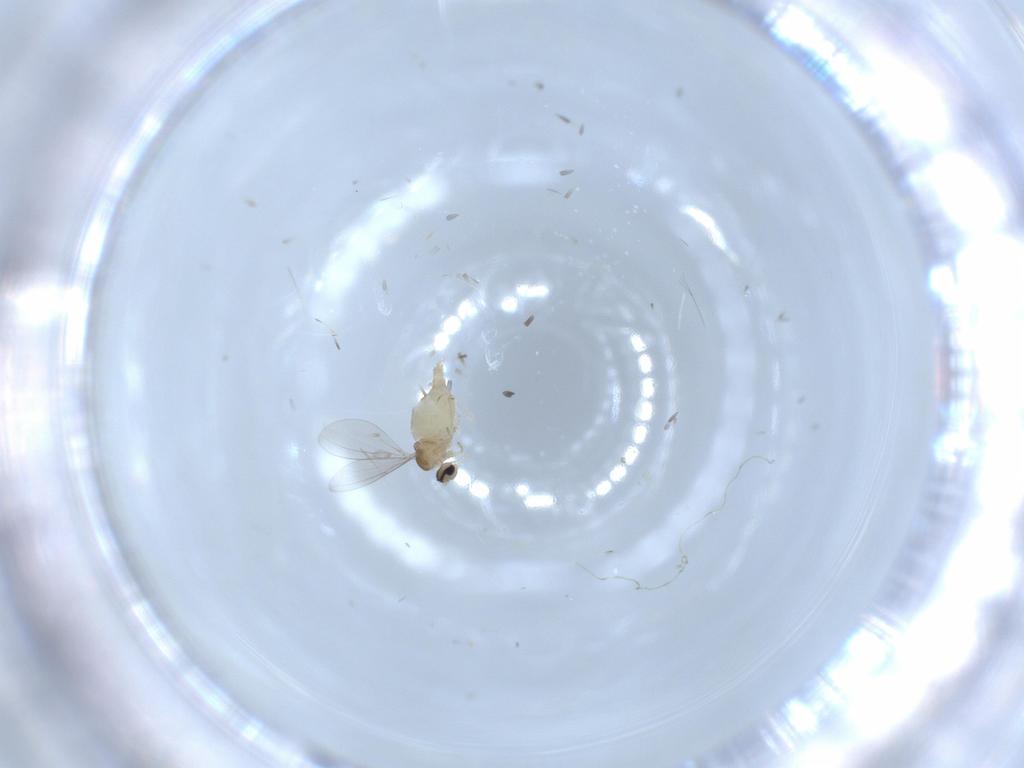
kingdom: Animalia
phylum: Arthropoda
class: Insecta
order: Diptera
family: Cecidomyiidae
